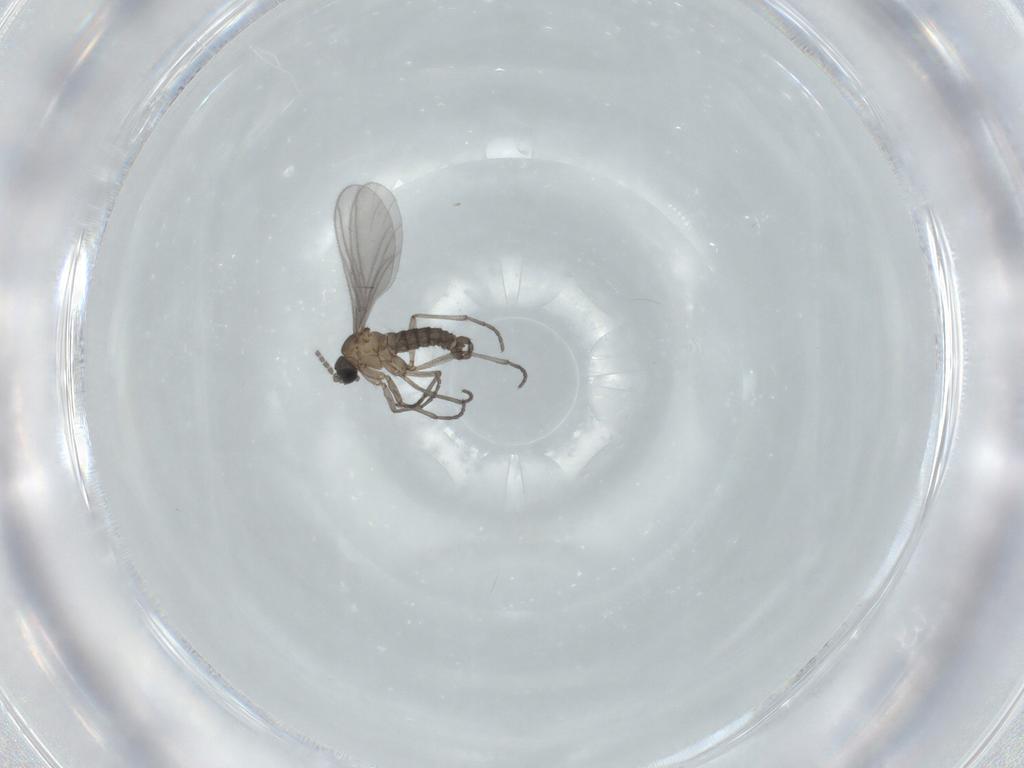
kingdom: Animalia
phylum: Arthropoda
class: Insecta
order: Diptera
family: Sciaridae
